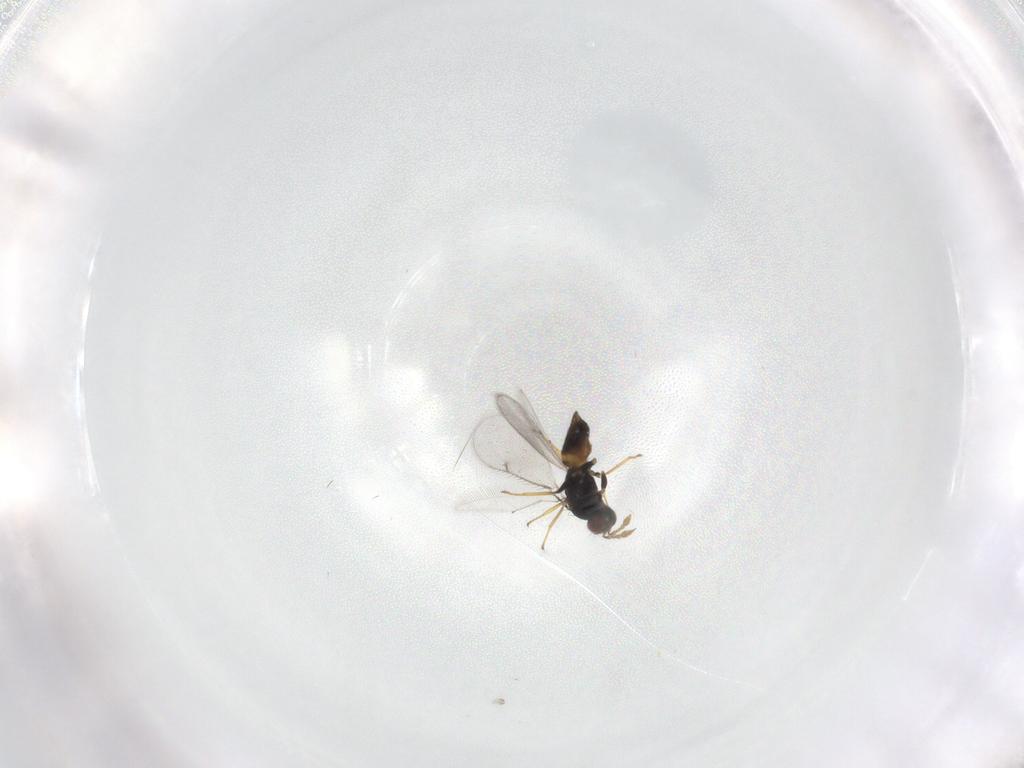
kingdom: Animalia
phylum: Arthropoda
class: Insecta
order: Hymenoptera
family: Eulophidae
